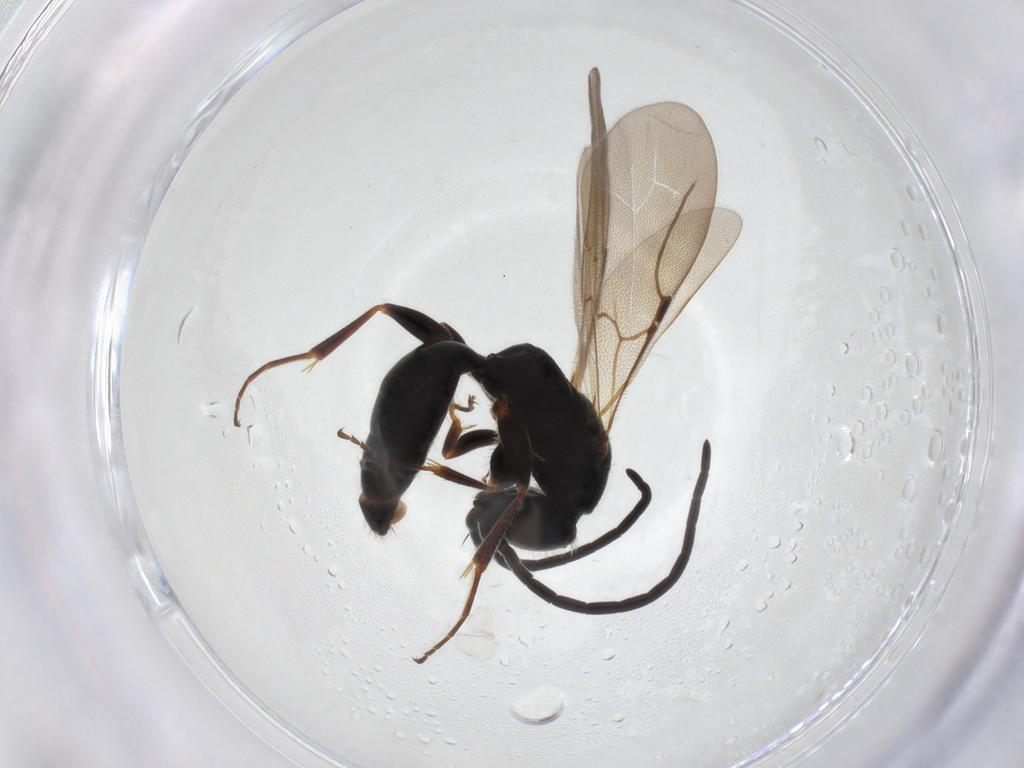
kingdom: Animalia
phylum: Arthropoda
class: Insecta
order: Hymenoptera
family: Bethylidae
